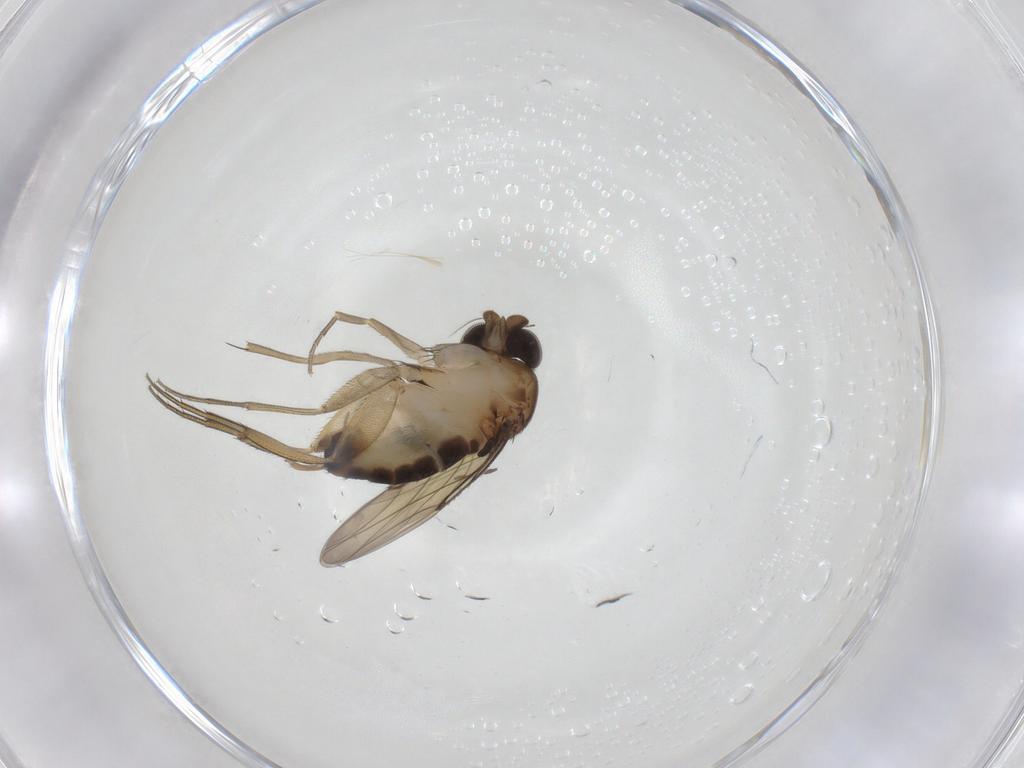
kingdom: Animalia
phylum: Arthropoda
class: Insecta
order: Diptera
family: Phoridae
